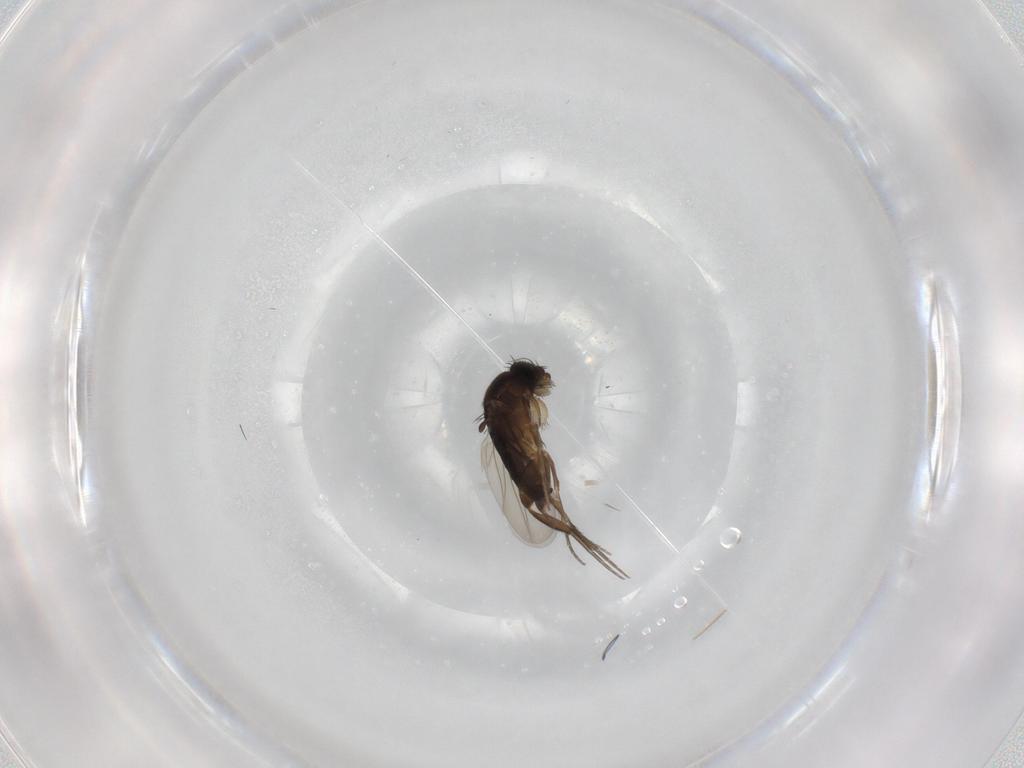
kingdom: Animalia
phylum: Arthropoda
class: Insecta
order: Diptera
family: Phoridae
